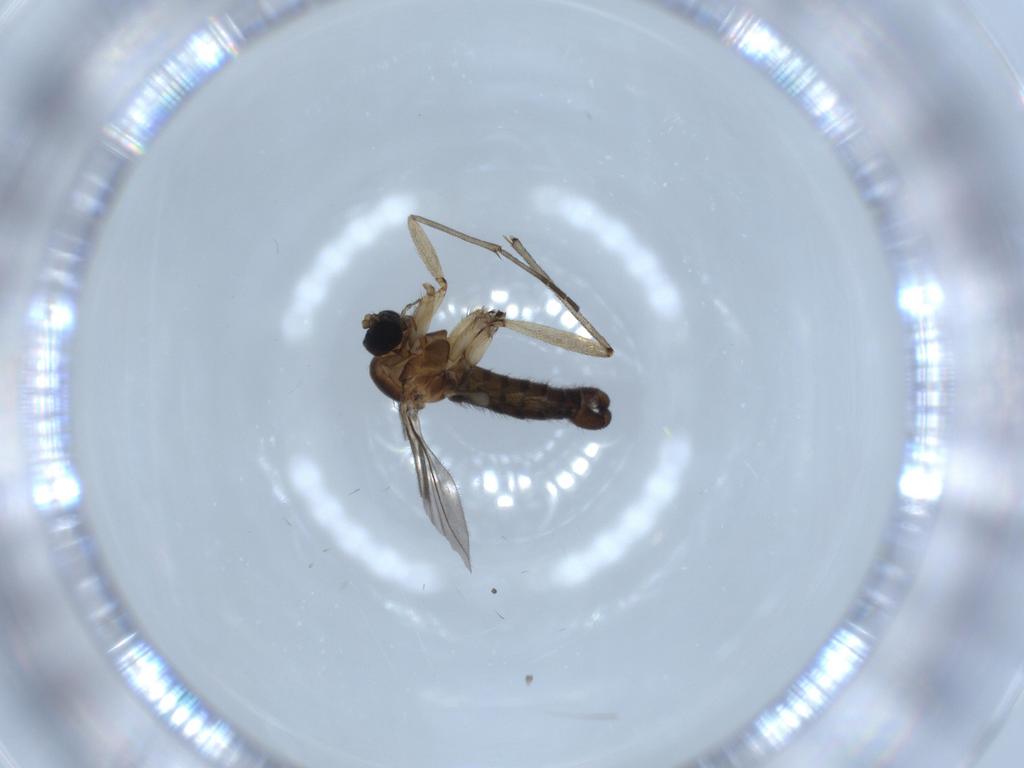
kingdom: Animalia
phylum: Arthropoda
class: Insecta
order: Diptera
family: Sciaridae
